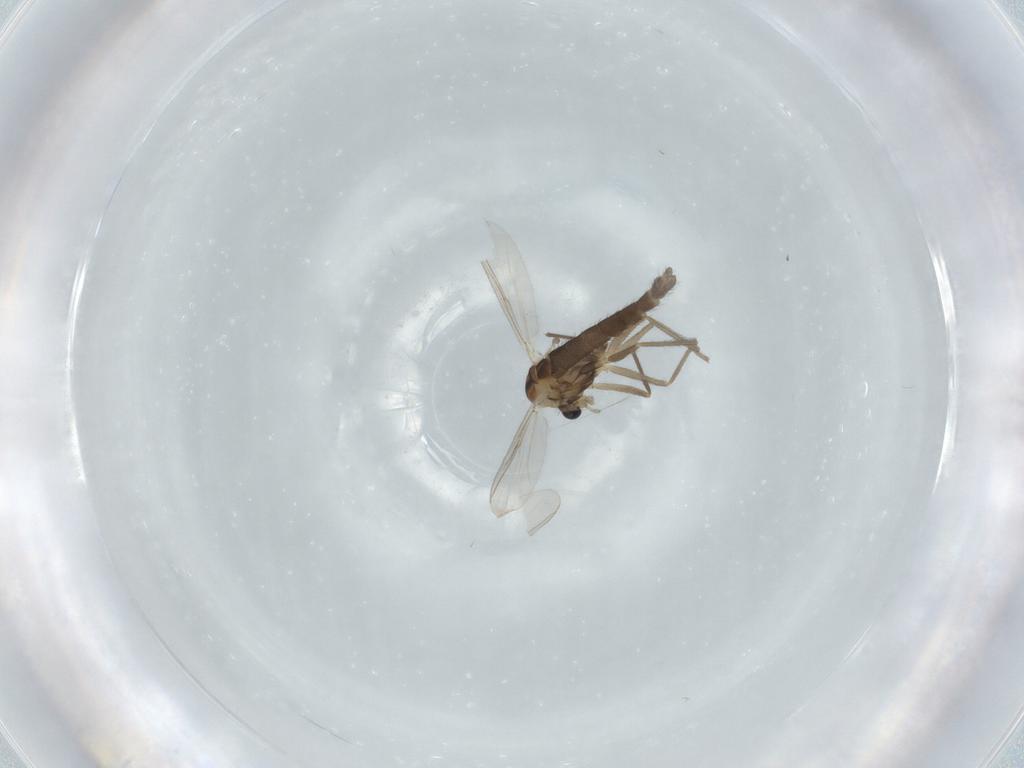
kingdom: Animalia
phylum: Arthropoda
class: Insecta
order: Diptera
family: Chironomidae
